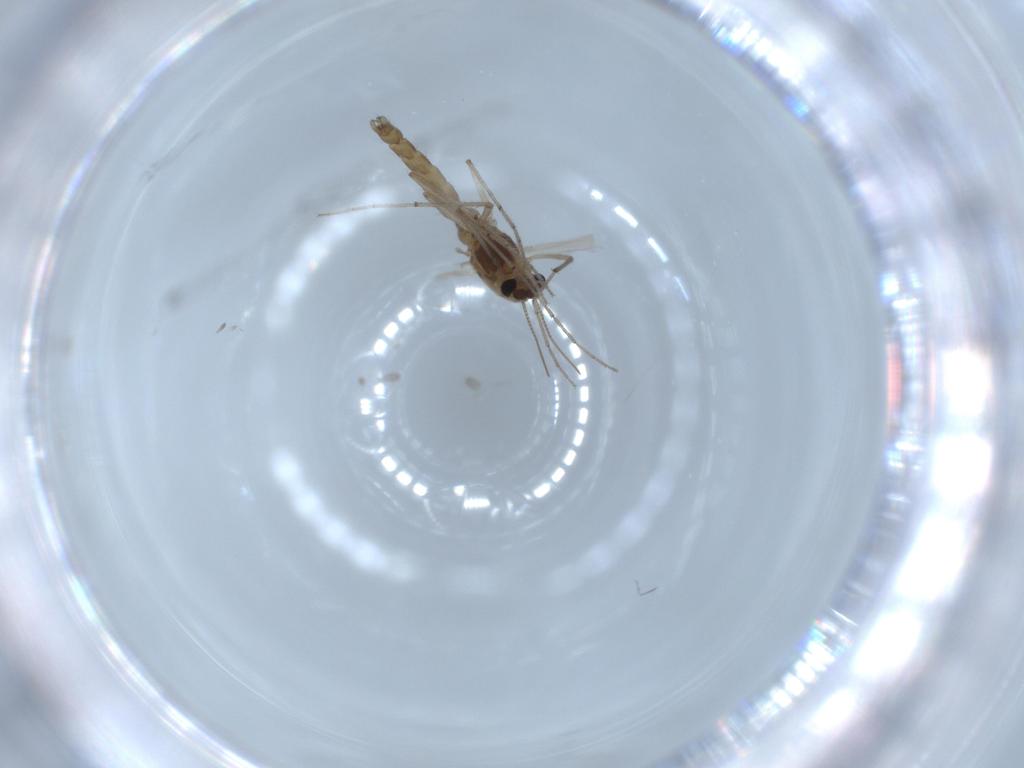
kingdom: Animalia
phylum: Arthropoda
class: Insecta
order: Diptera
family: Chironomidae
